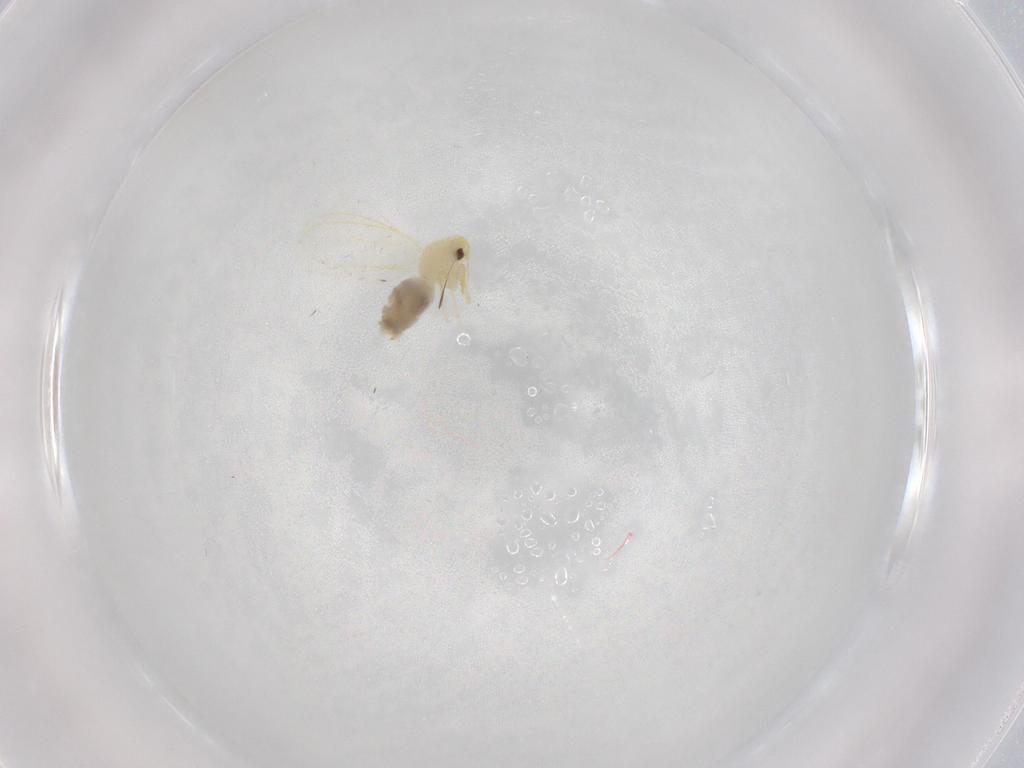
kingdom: Animalia
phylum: Arthropoda
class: Insecta
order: Hemiptera
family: Aleyrodidae
